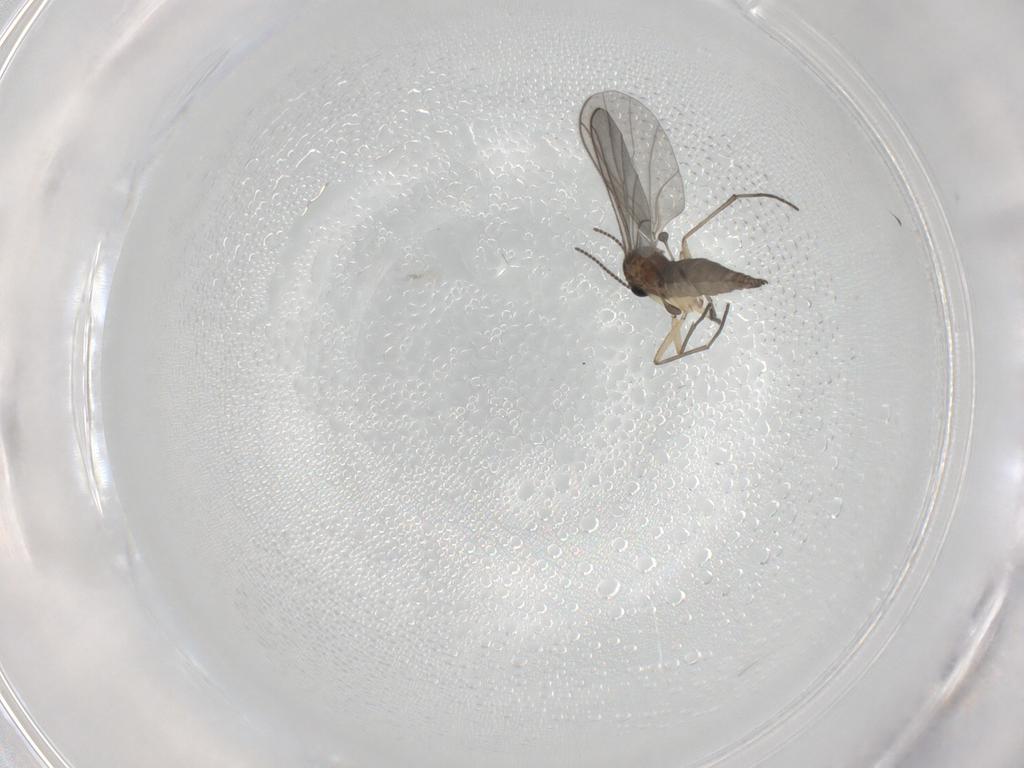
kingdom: Animalia
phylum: Arthropoda
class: Insecta
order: Diptera
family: Sciaridae
